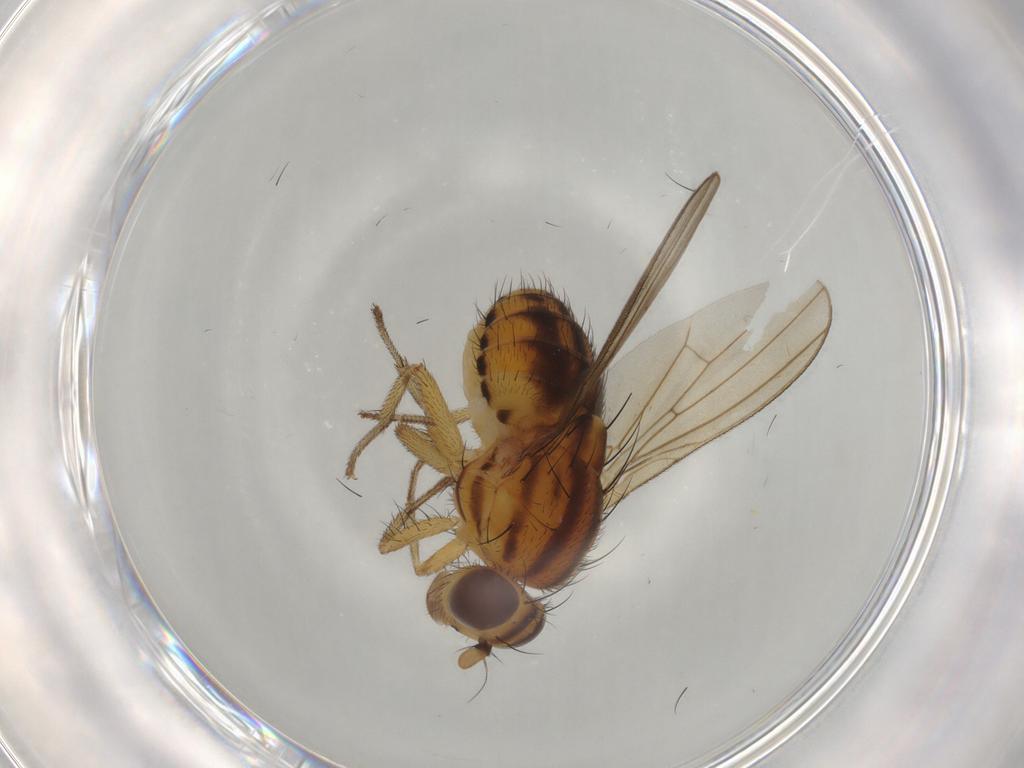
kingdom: Animalia
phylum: Arthropoda
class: Insecta
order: Diptera
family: Lauxaniidae
